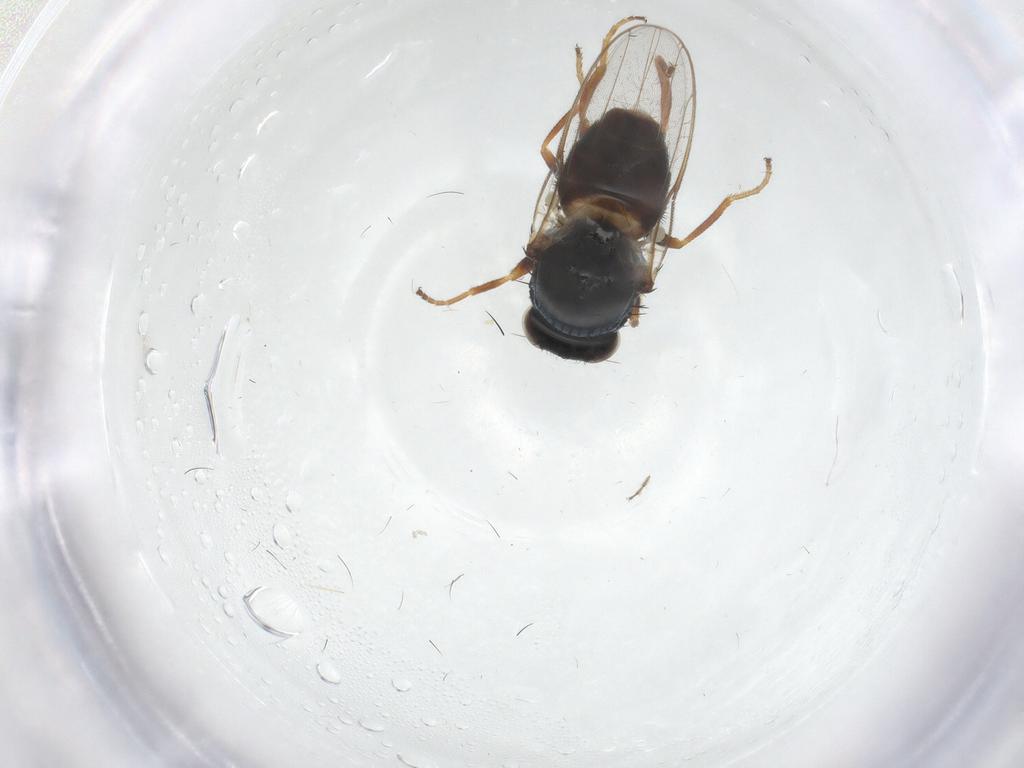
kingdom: Animalia
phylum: Arthropoda
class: Insecta
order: Diptera
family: Chloropidae
